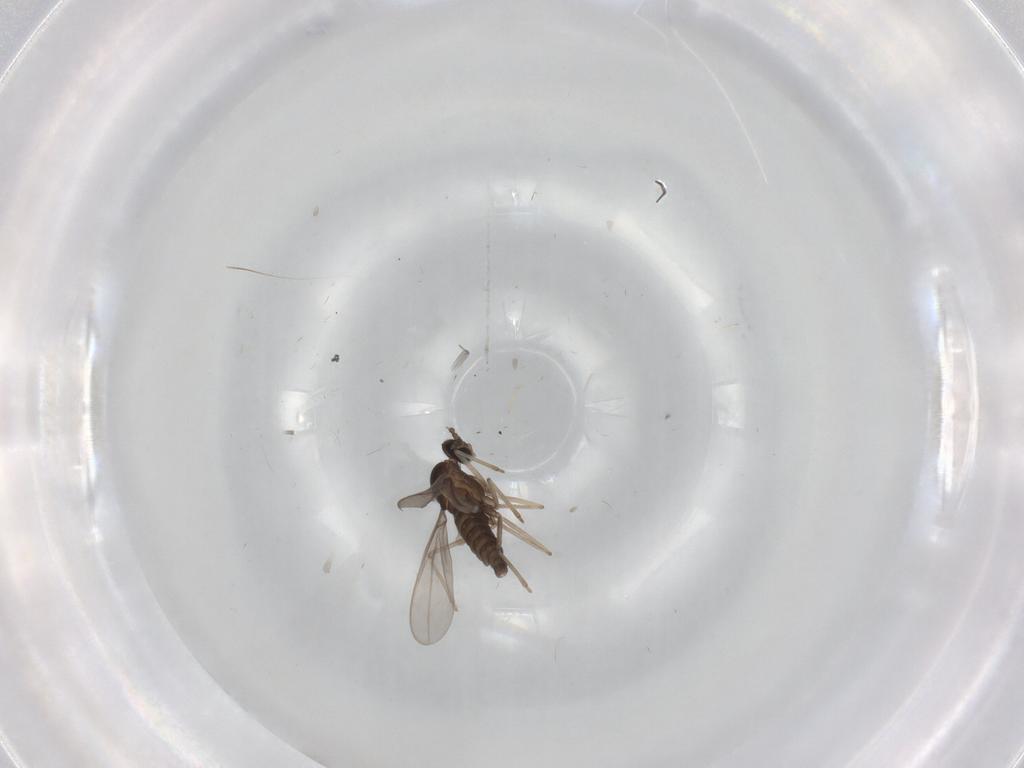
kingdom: Animalia
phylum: Arthropoda
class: Insecta
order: Diptera
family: Cecidomyiidae
